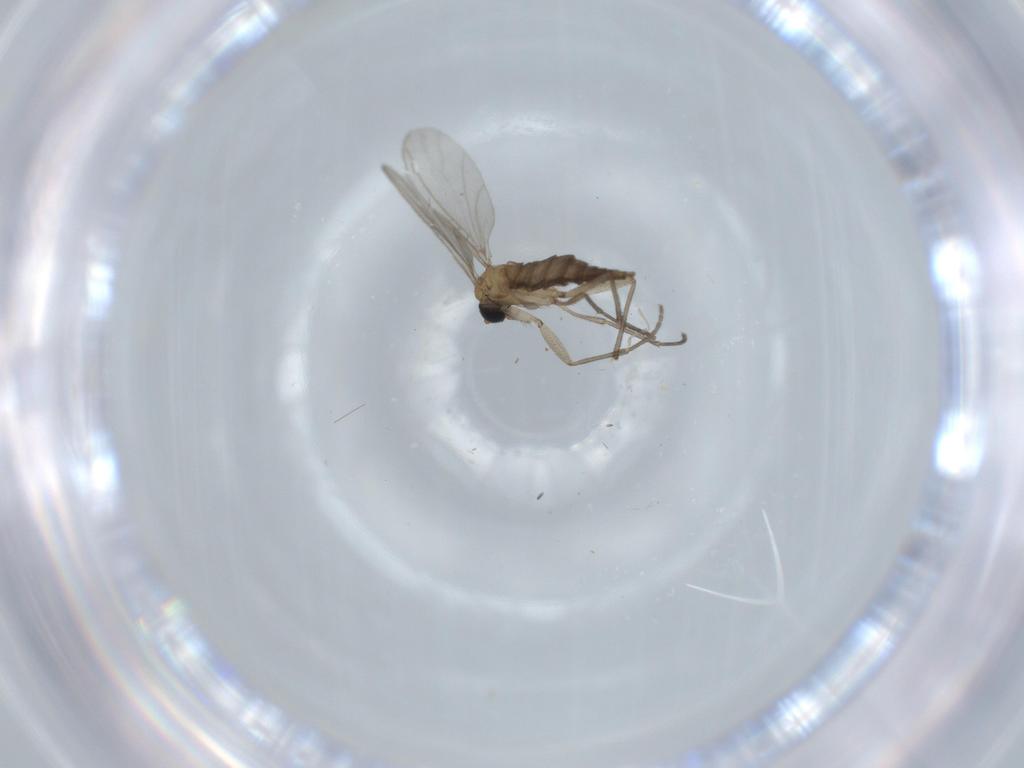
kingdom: Animalia
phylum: Arthropoda
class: Insecta
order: Diptera
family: Sciaridae
